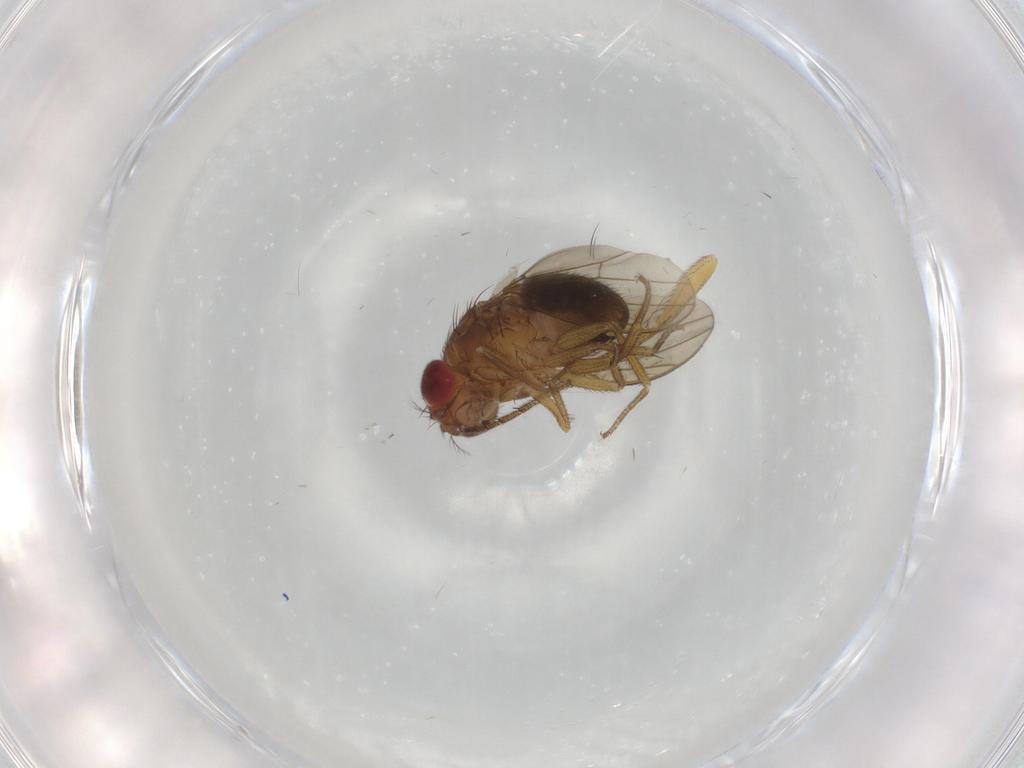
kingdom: Animalia
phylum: Arthropoda
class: Insecta
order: Diptera
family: Drosophilidae
